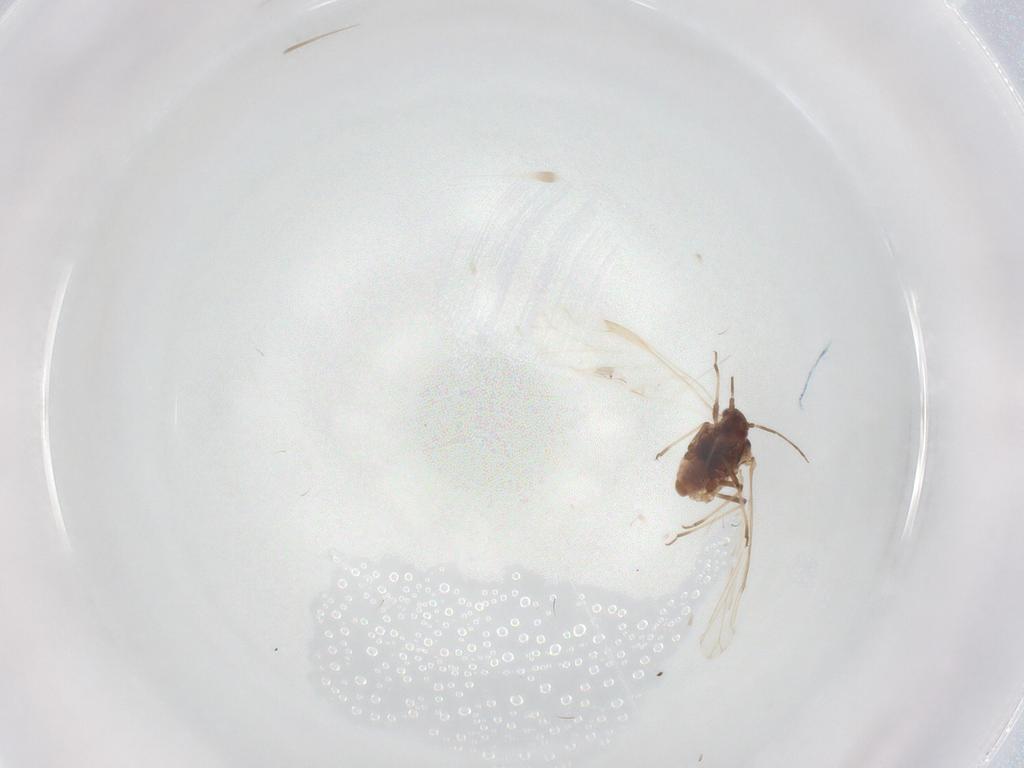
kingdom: Animalia
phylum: Arthropoda
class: Insecta
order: Hemiptera
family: Aphididae
